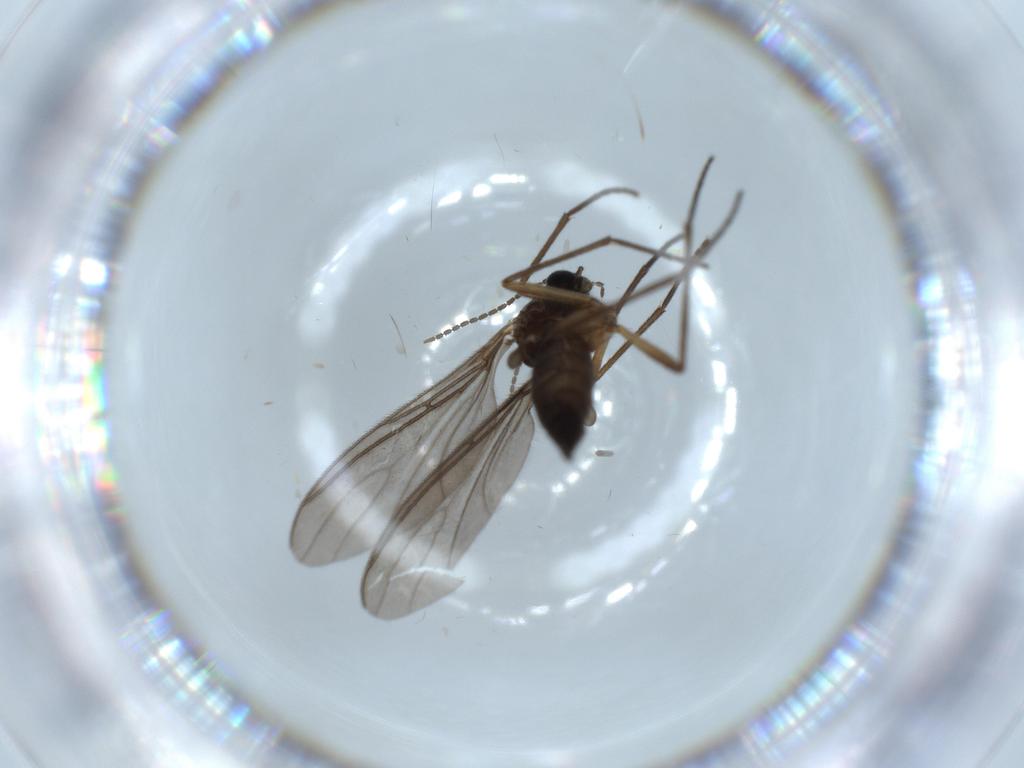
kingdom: Animalia
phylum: Arthropoda
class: Insecta
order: Diptera
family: Sciaridae
